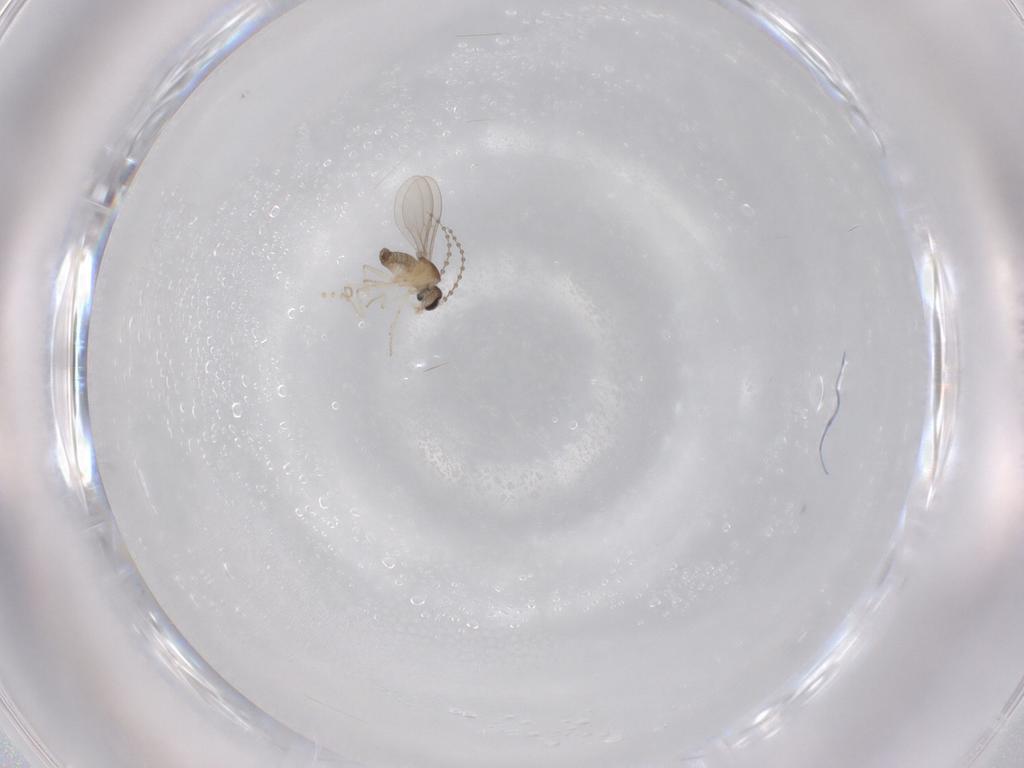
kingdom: Animalia
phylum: Arthropoda
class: Insecta
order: Diptera
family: Cecidomyiidae
